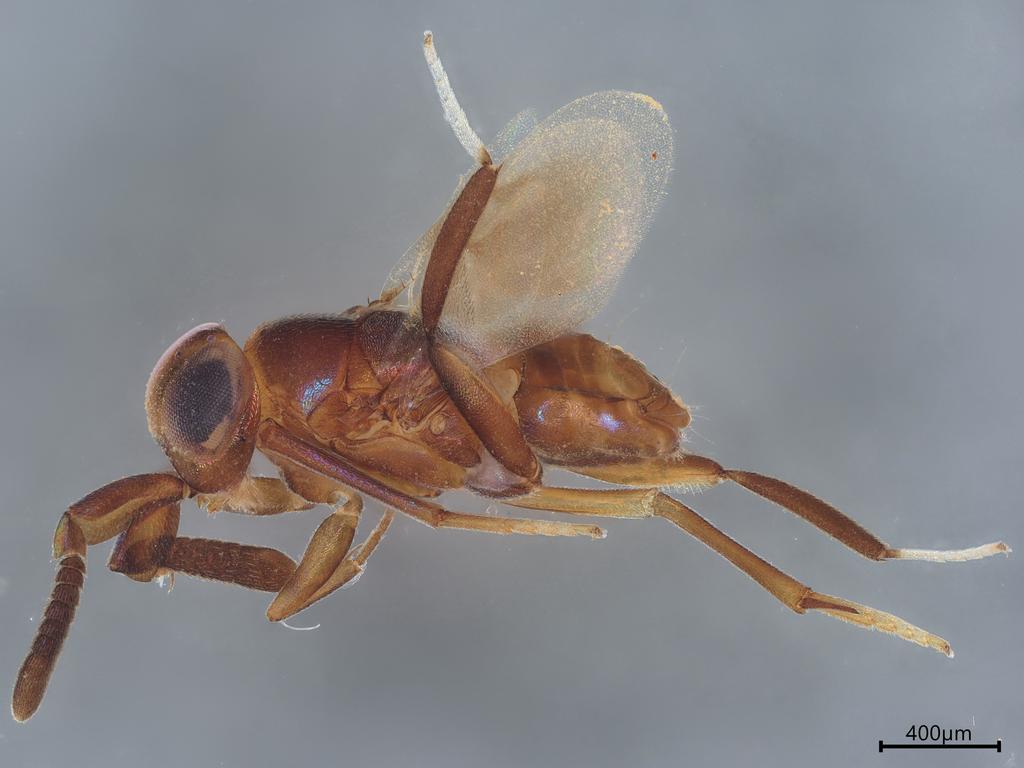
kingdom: Animalia
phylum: Arthropoda
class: Insecta
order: Hymenoptera
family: Encyrtidae
